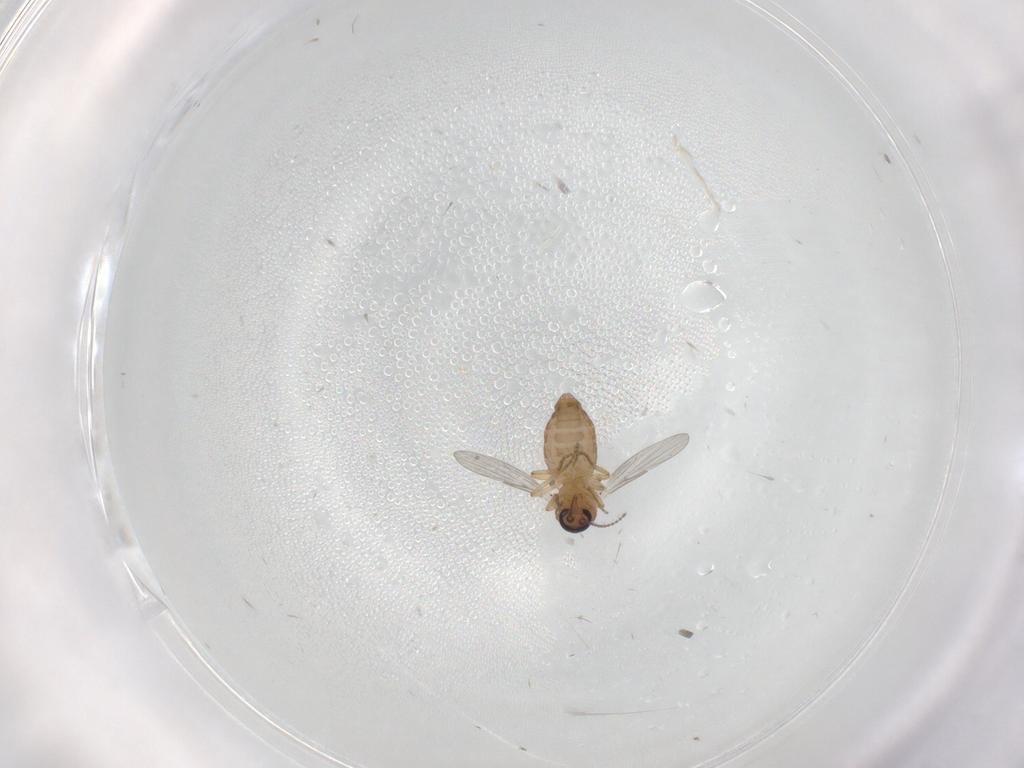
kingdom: Animalia
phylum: Arthropoda
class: Insecta
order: Diptera
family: Ceratopogonidae
